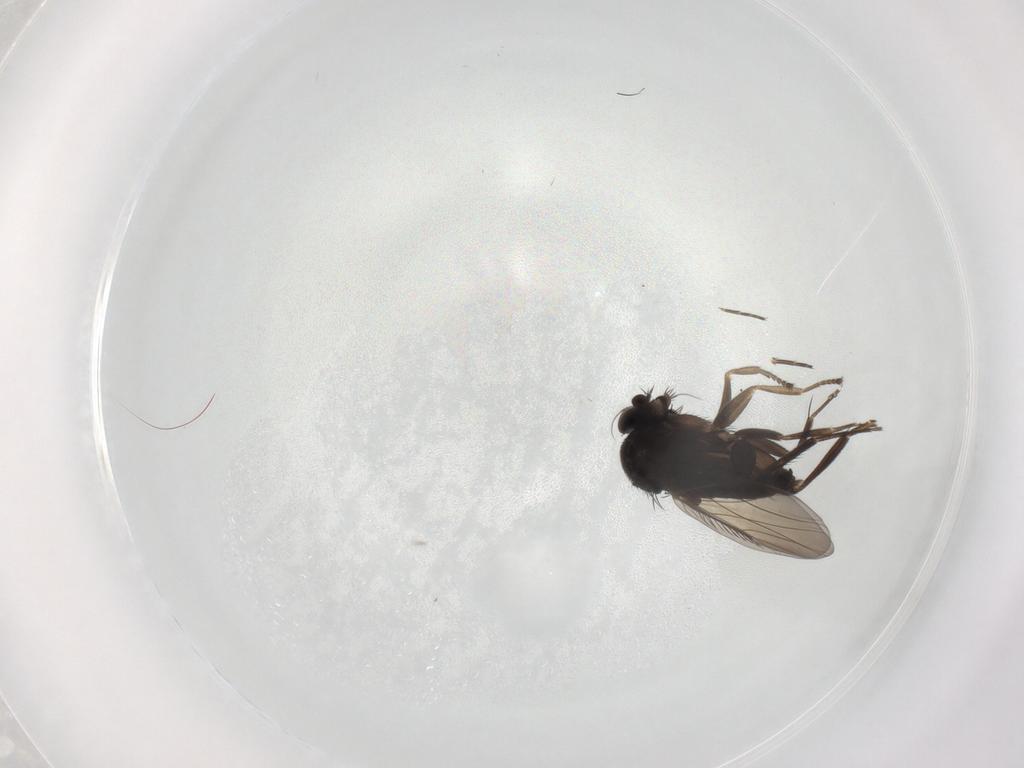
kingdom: Animalia
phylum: Arthropoda
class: Insecta
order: Diptera
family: Phoridae
